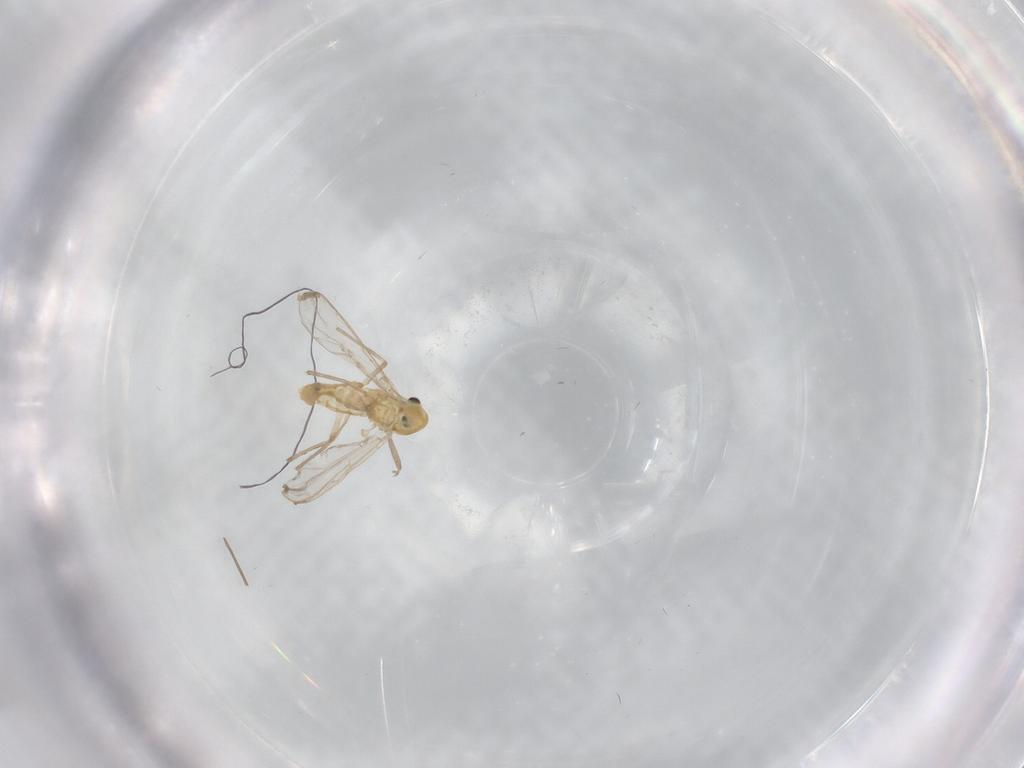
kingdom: Animalia
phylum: Arthropoda
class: Insecta
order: Diptera
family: Chironomidae
